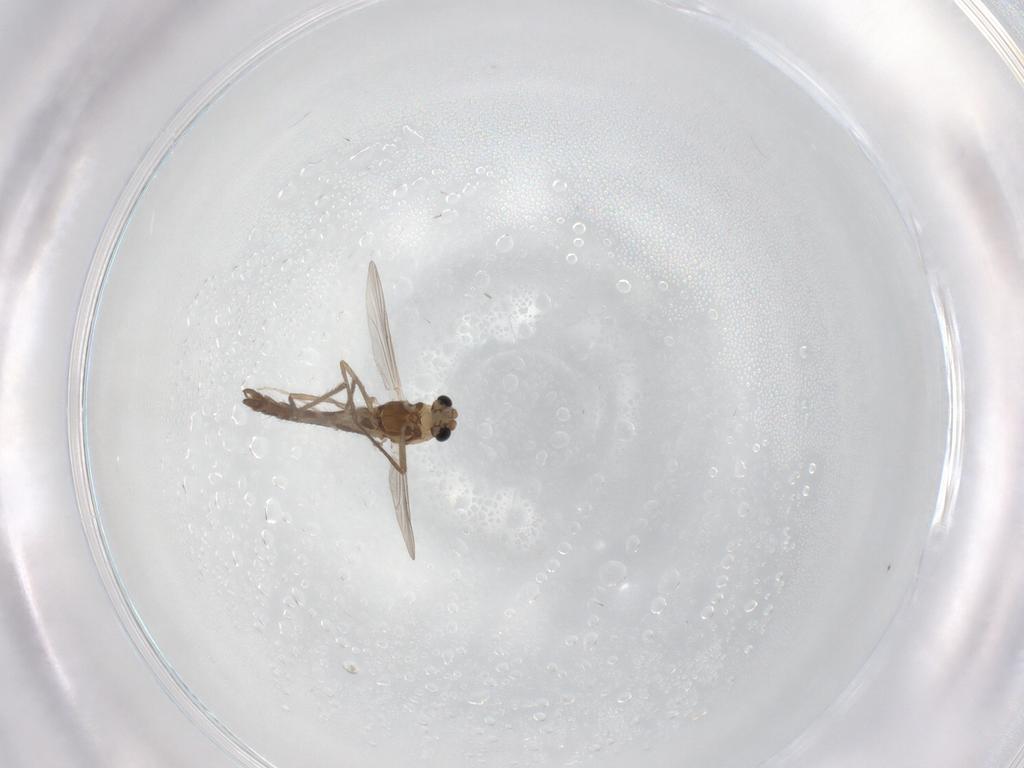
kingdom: Animalia
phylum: Arthropoda
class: Insecta
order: Diptera
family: Chironomidae
